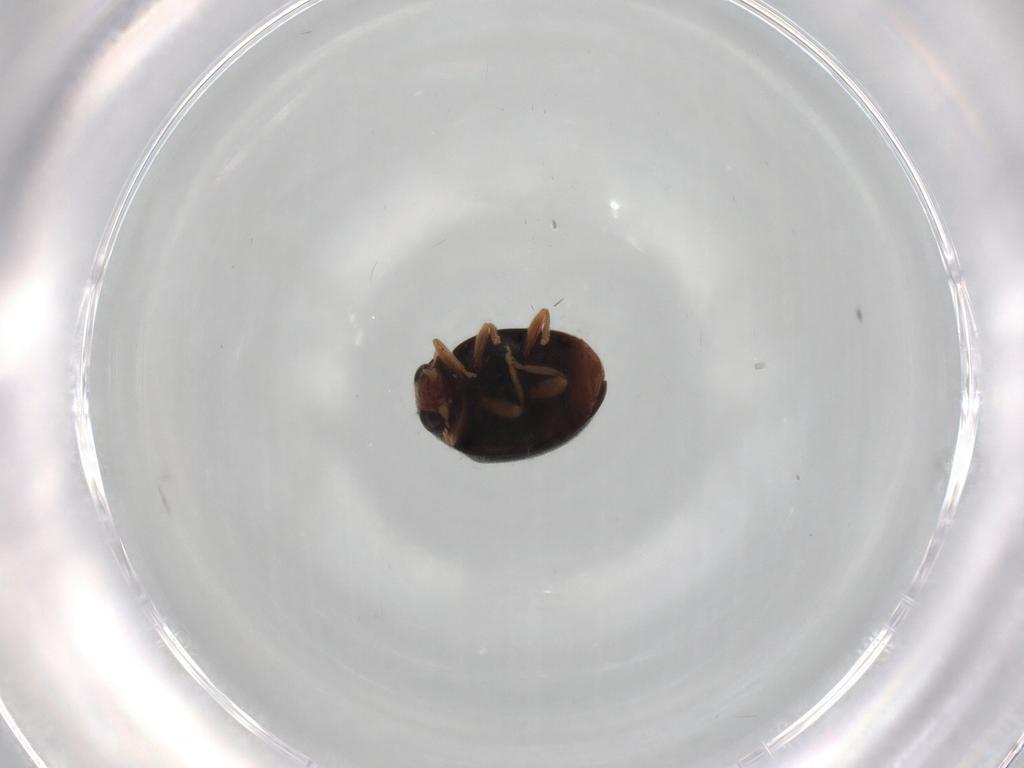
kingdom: Animalia
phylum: Arthropoda
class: Insecta
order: Coleoptera
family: Coccinellidae
